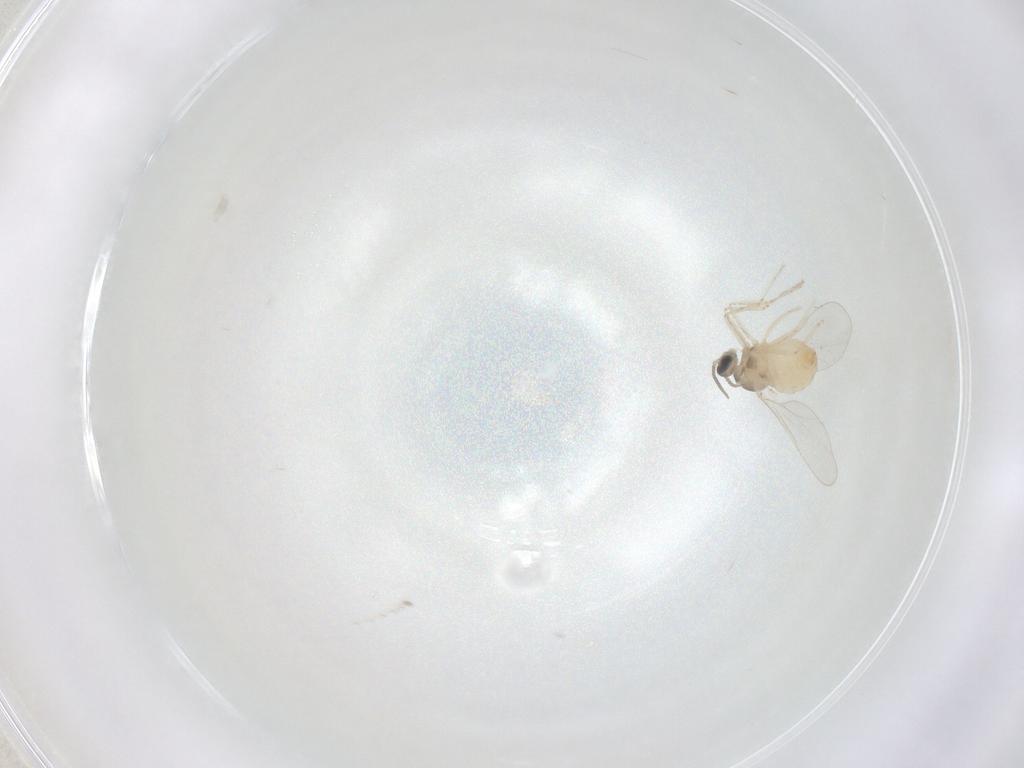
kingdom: Animalia
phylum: Arthropoda
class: Insecta
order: Diptera
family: Cecidomyiidae
